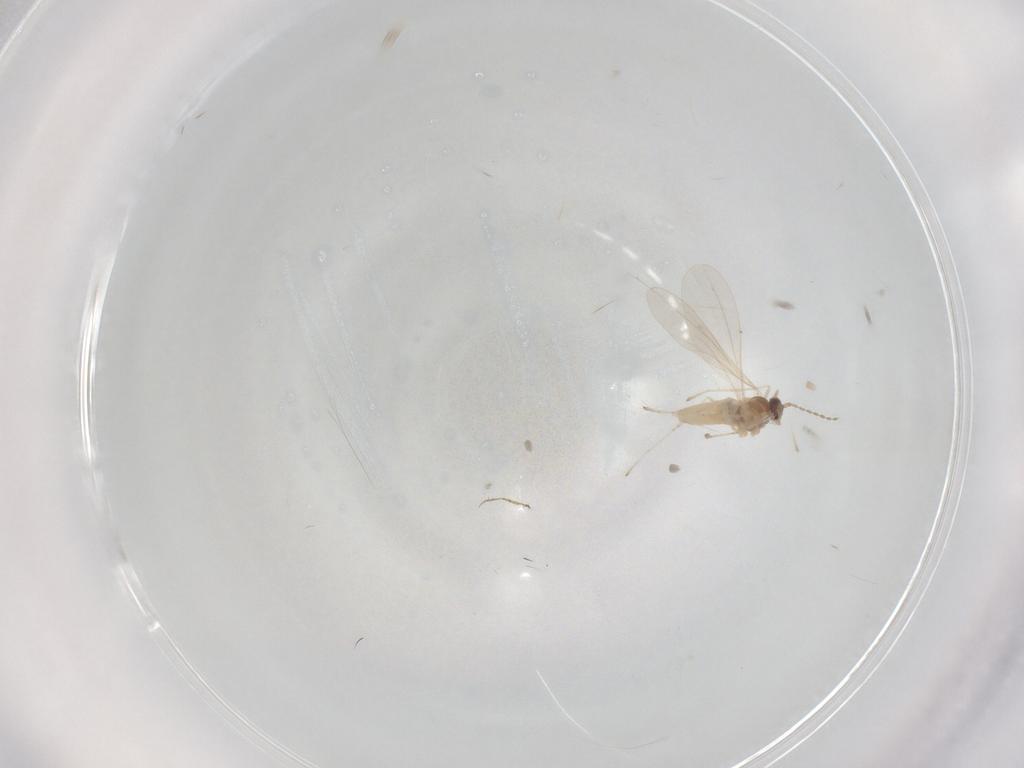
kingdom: Animalia
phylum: Arthropoda
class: Insecta
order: Diptera
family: Cecidomyiidae
